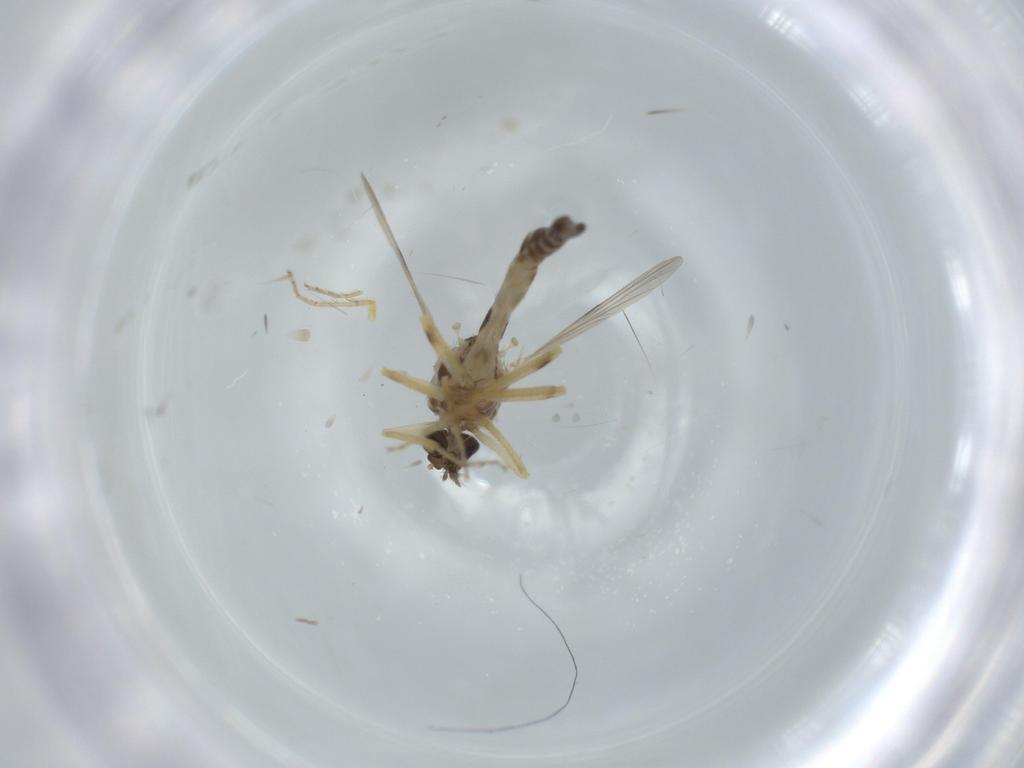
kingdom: Animalia
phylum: Arthropoda
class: Insecta
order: Diptera
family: Ceratopogonidae
